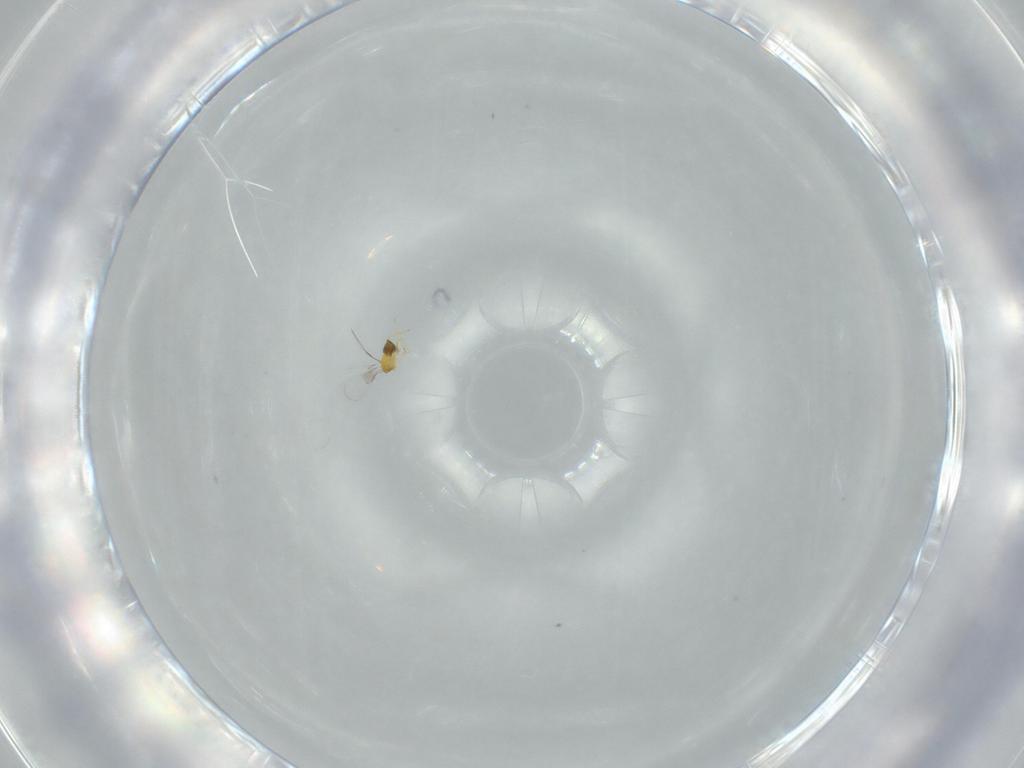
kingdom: Animalia
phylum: Arthropoda
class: Insecta
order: Hymenoptera
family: Trichogrammatidae
